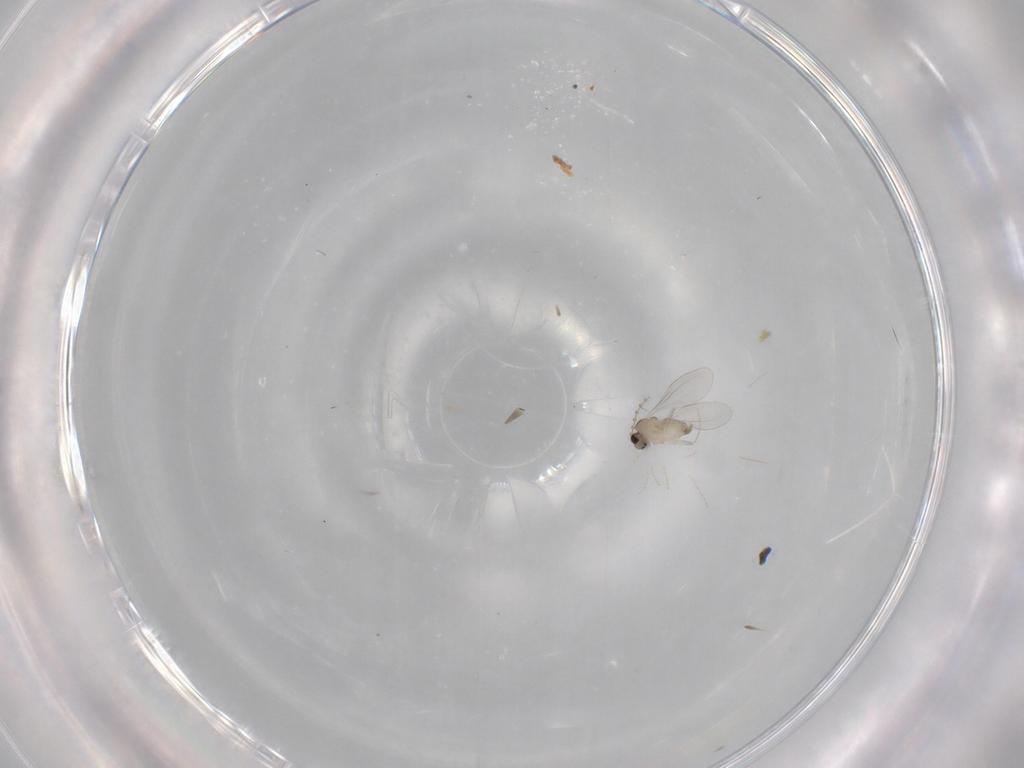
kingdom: Animalia
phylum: Arthropoda
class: Insecta
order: Diptera
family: Cecidomyiidae
